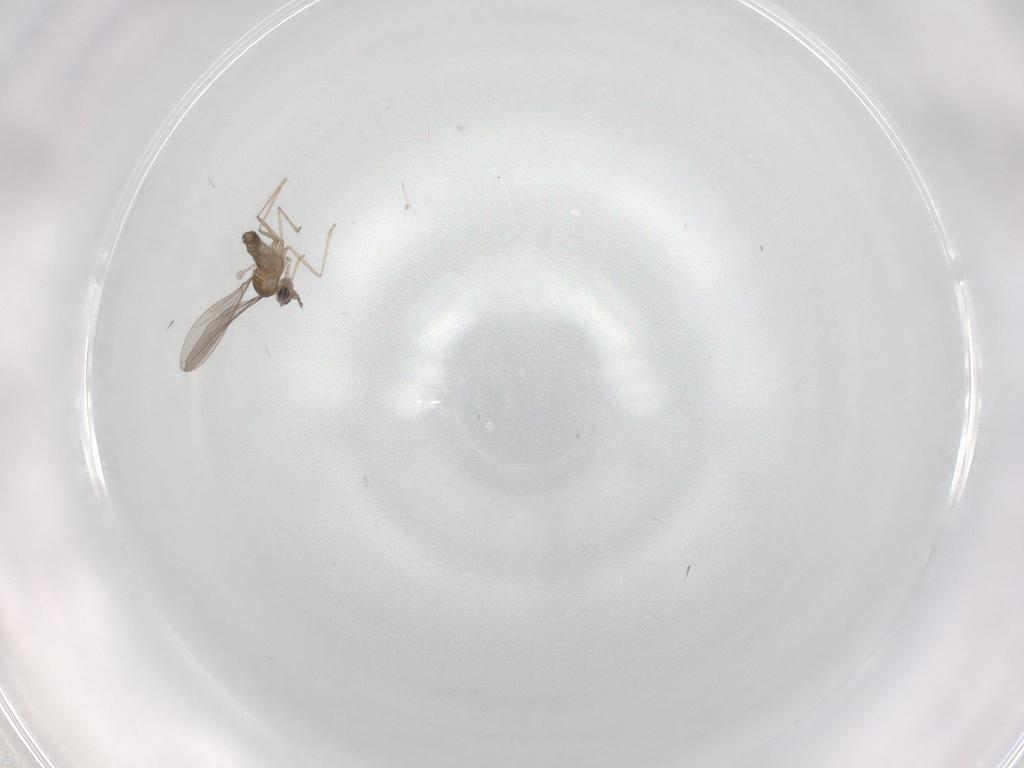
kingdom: Animalia
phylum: Arthropoda
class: Insecta
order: Diptera
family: Cecidomyiidae
